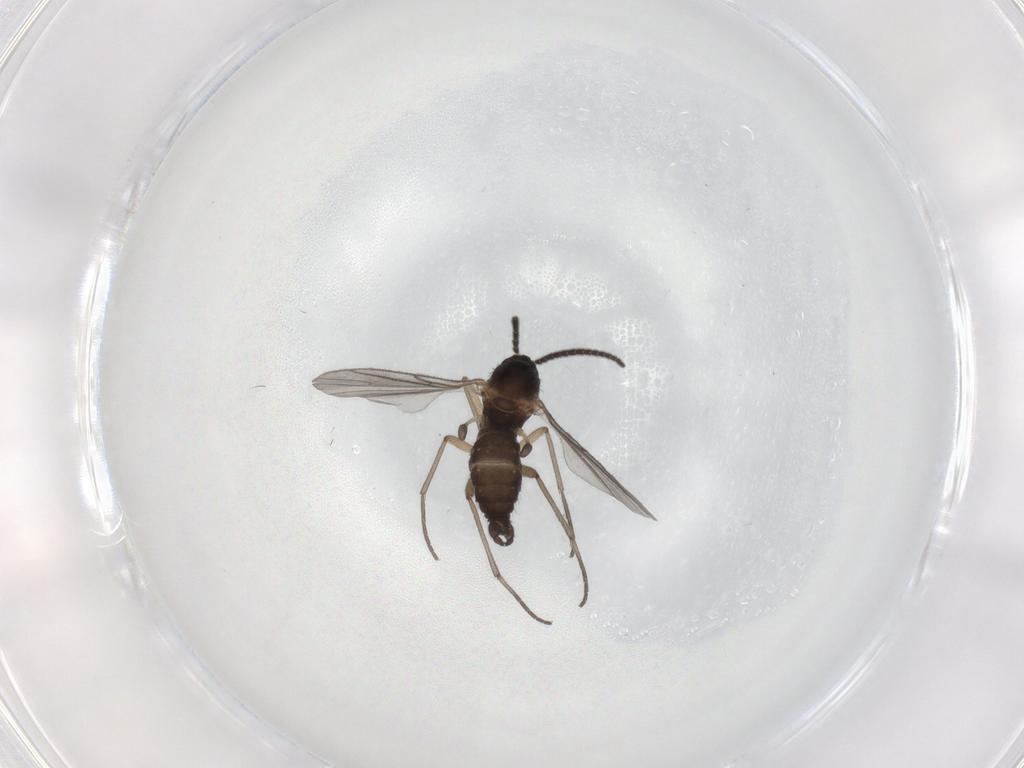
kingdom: Animalia
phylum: Arthropoda
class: Insecta
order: Diptera
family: Sciaridae
